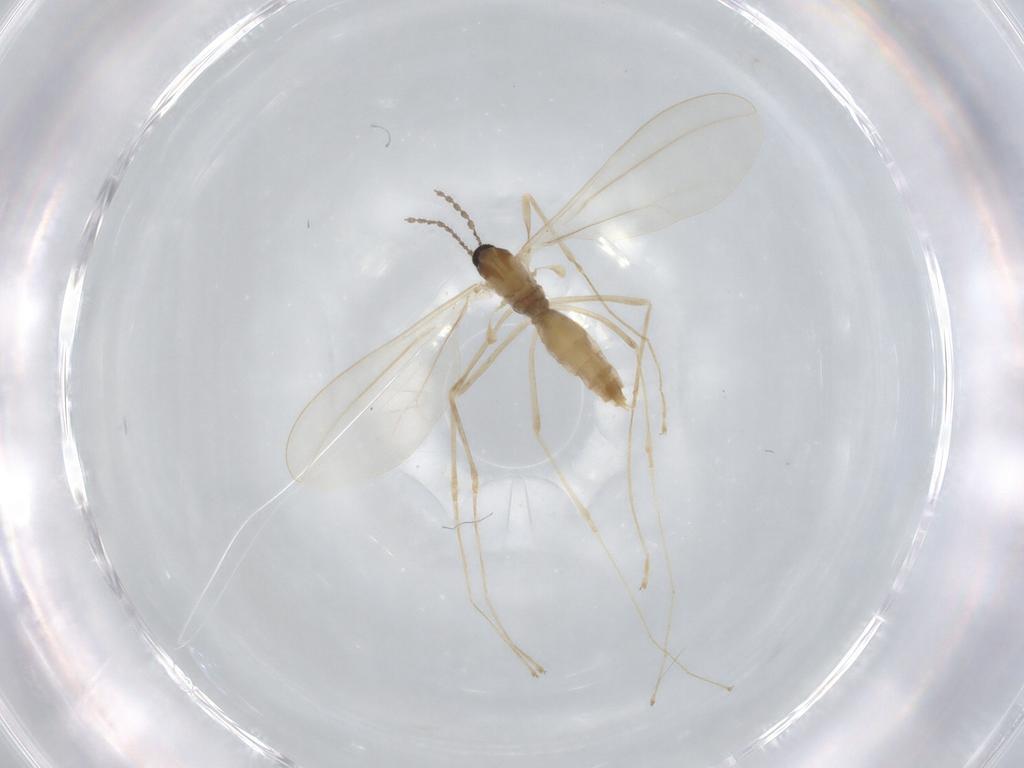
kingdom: Animalia
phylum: Arthropoda
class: Insecta
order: Diptera
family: Cecidomyiidae
